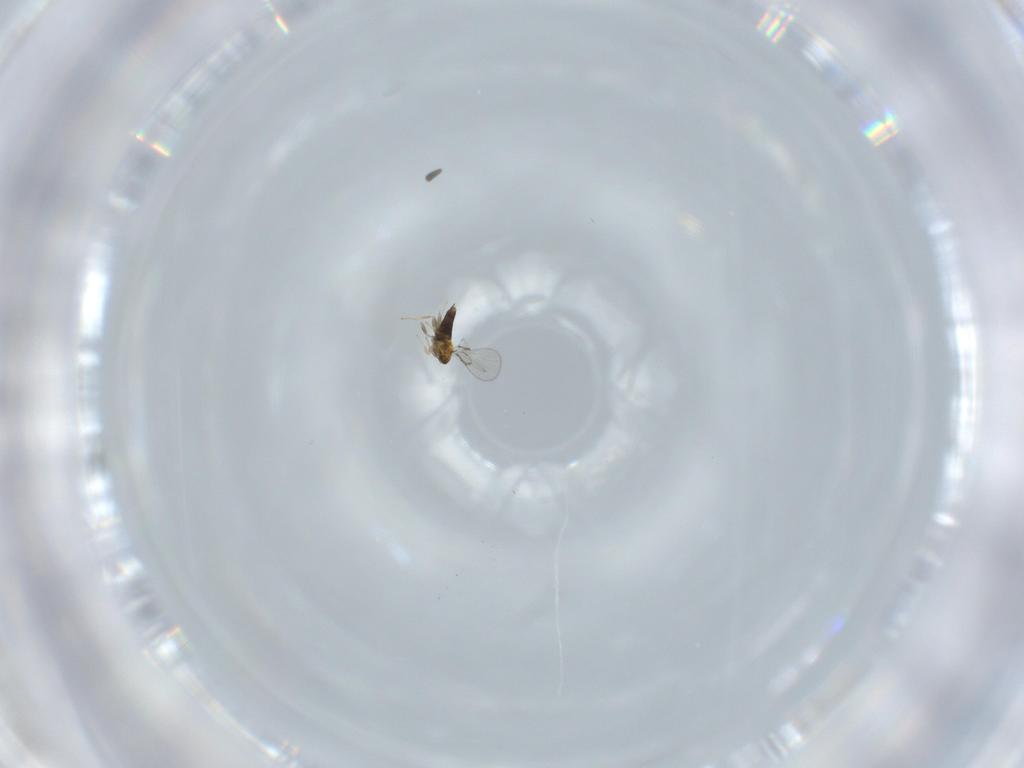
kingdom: Animalia
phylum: Arthropoda
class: Insecta
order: Hymenoptera
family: Trichogrammatidae
